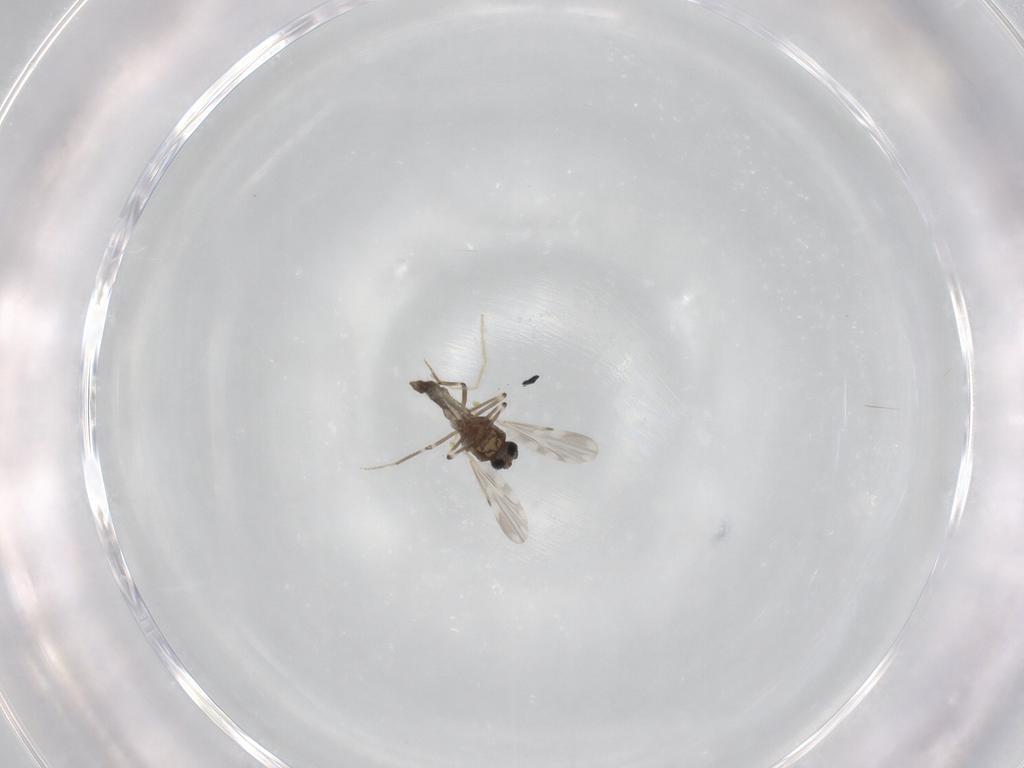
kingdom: Animalia
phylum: Arthropoda
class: Insecta
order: Diptera
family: Ceratopogonidae
